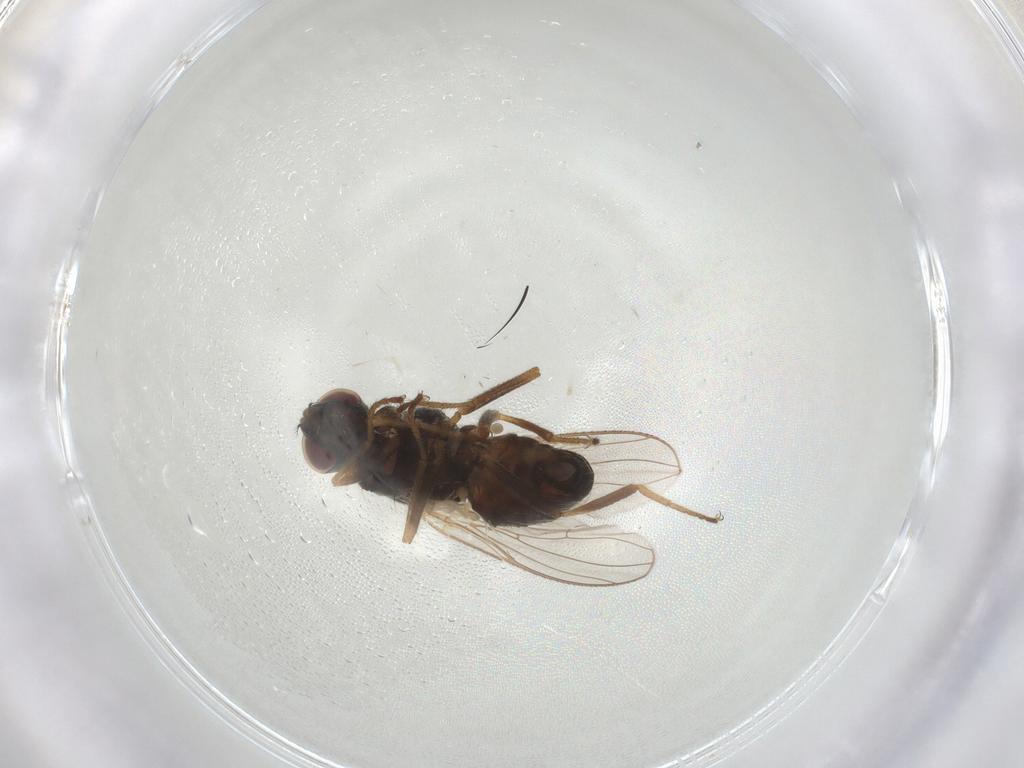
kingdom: Animalia
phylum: Arthropoda
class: Insecta
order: Diptera
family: Muscidae
